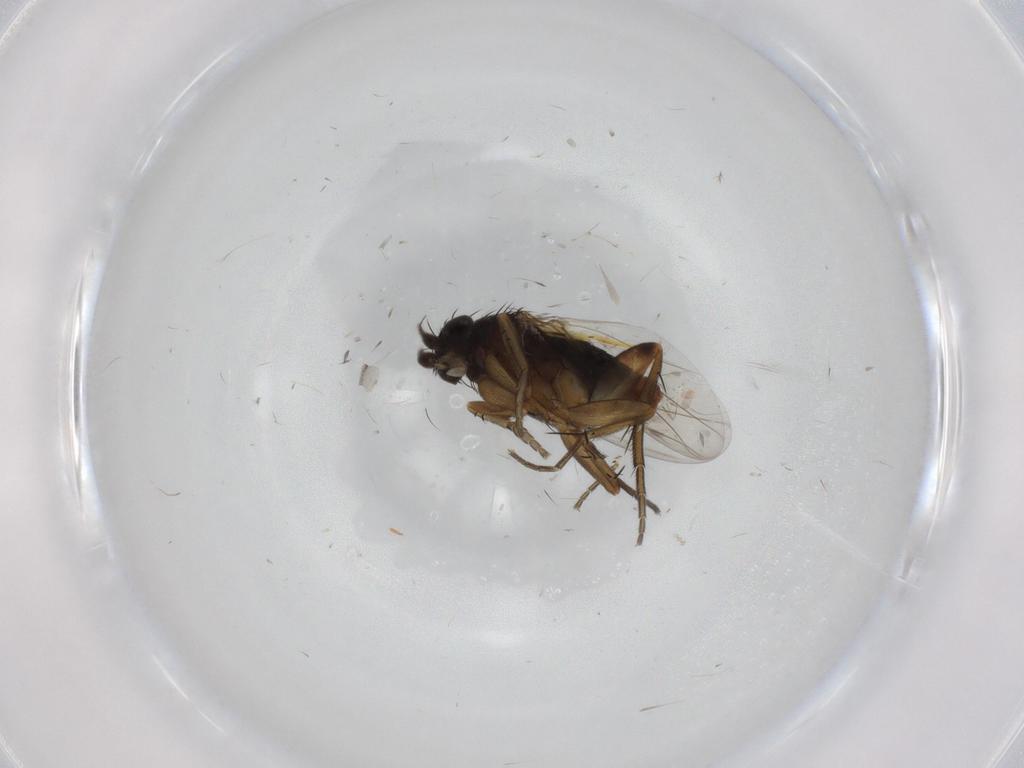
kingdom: Animalia
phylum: Arthropoda
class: Insecta
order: Diptera
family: Phoridae
